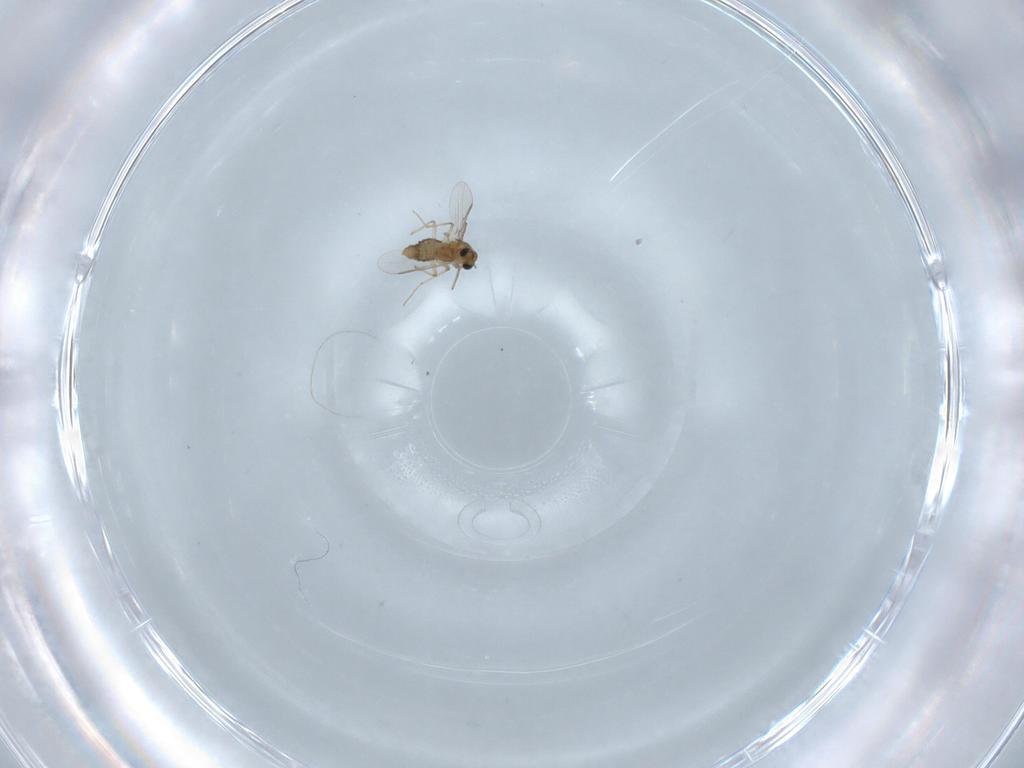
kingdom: Animalia
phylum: Arthropoda
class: Insecta
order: Diptera
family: Chironomidae
